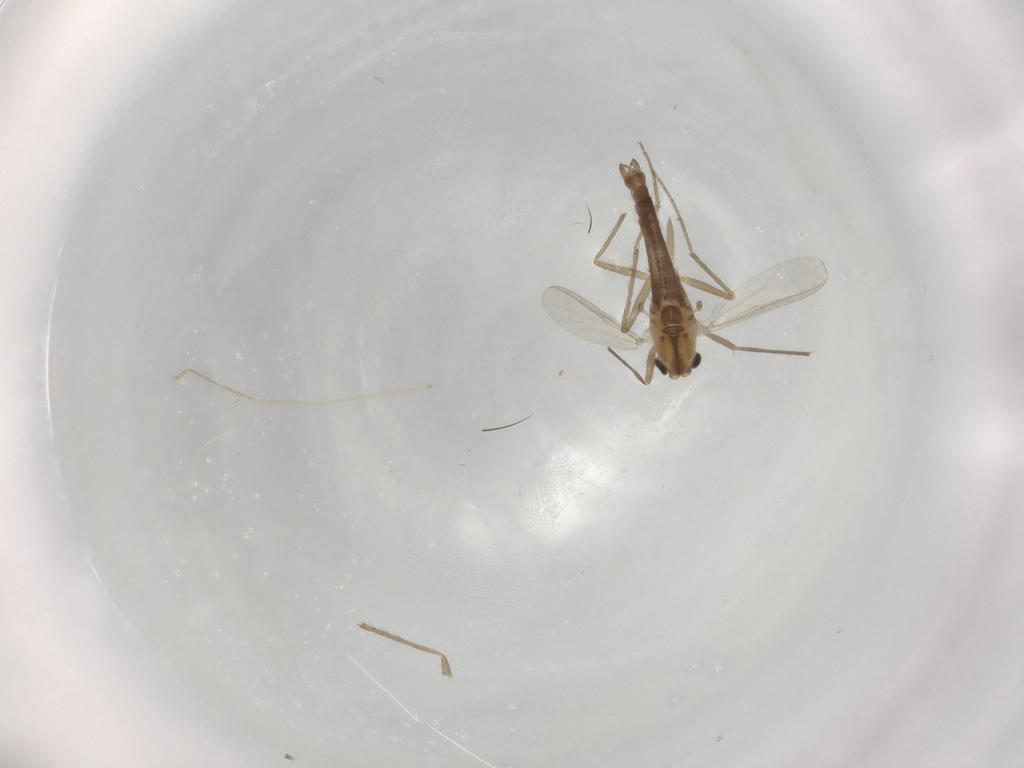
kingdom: Animalia
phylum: Arthropoda
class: Insecta
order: Diptera
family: Chironomidae
